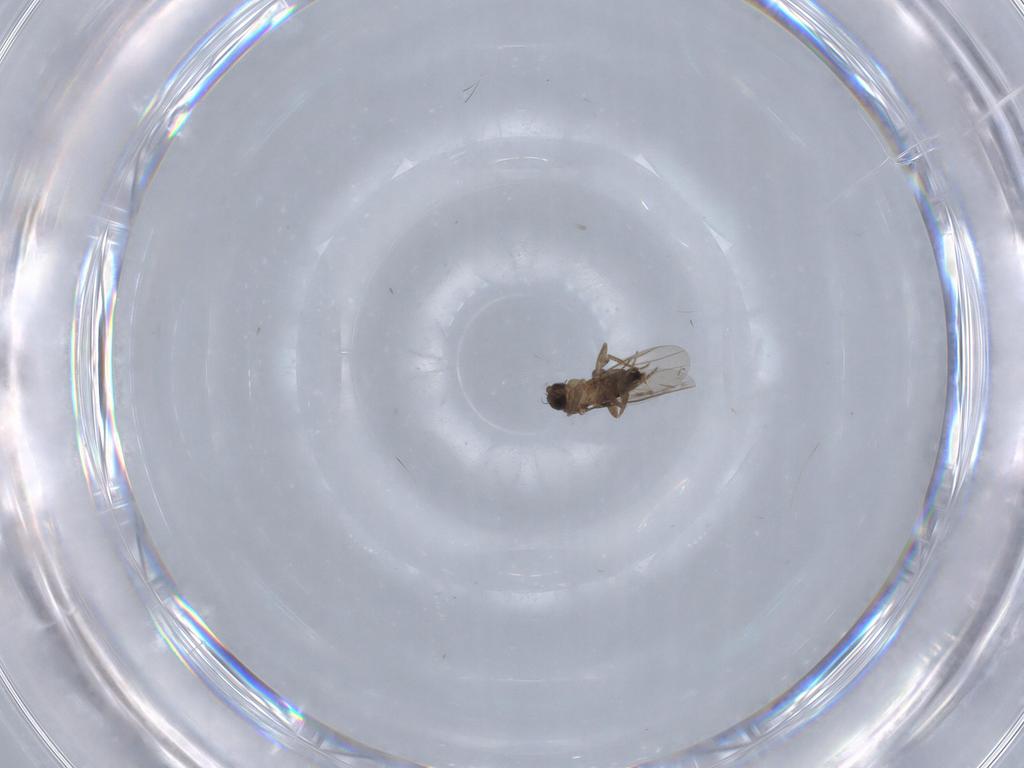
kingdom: Animalia
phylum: Arthropoda
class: Insecta
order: Diptera
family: Ceratopogonidae
